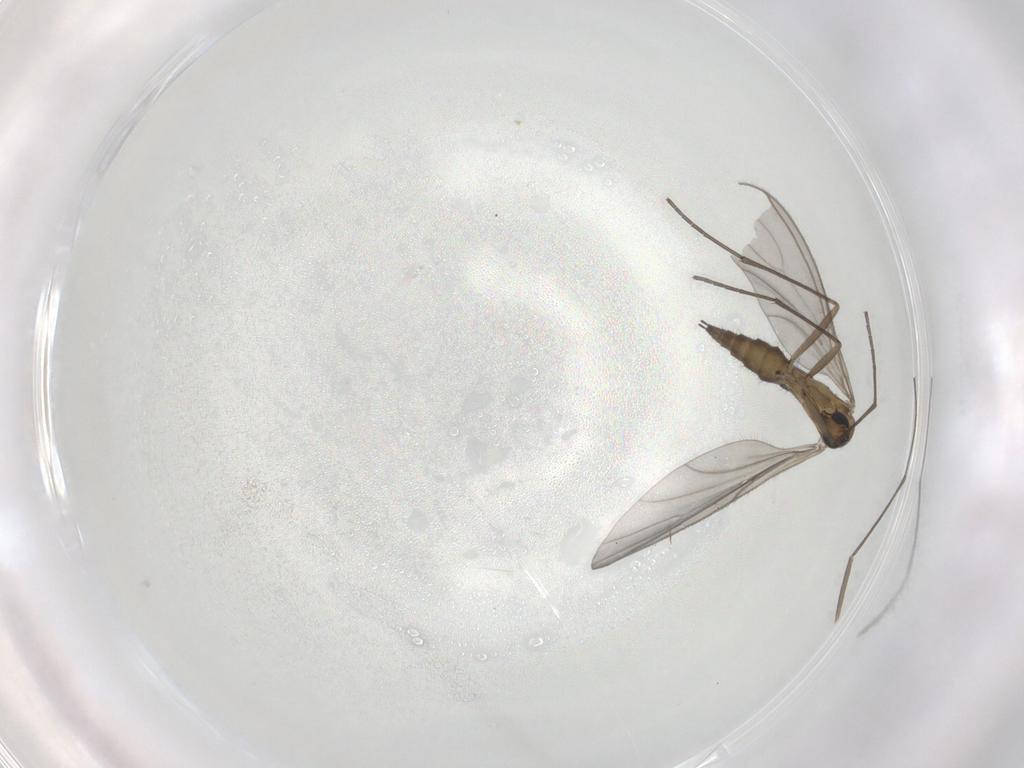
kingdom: Animalia
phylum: Arthropoda
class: Insecta
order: Diptera
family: Sciaridae
